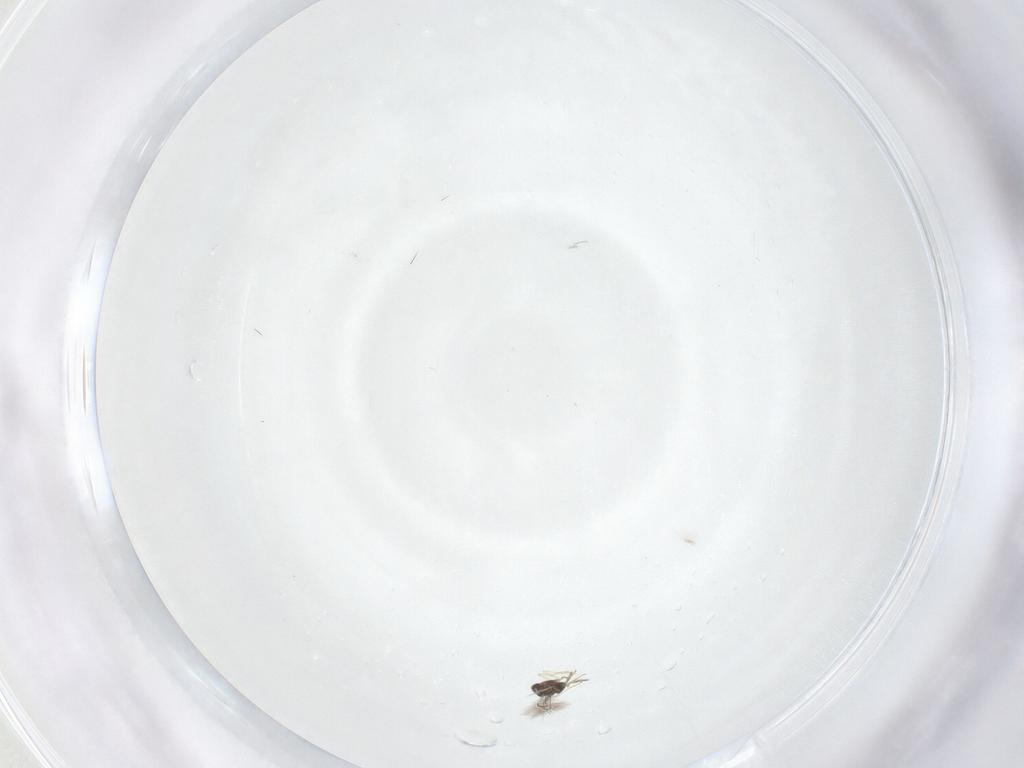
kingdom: Animalia
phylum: Arthropoda
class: Insecta
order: Hymenoptera
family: Mymaridae
